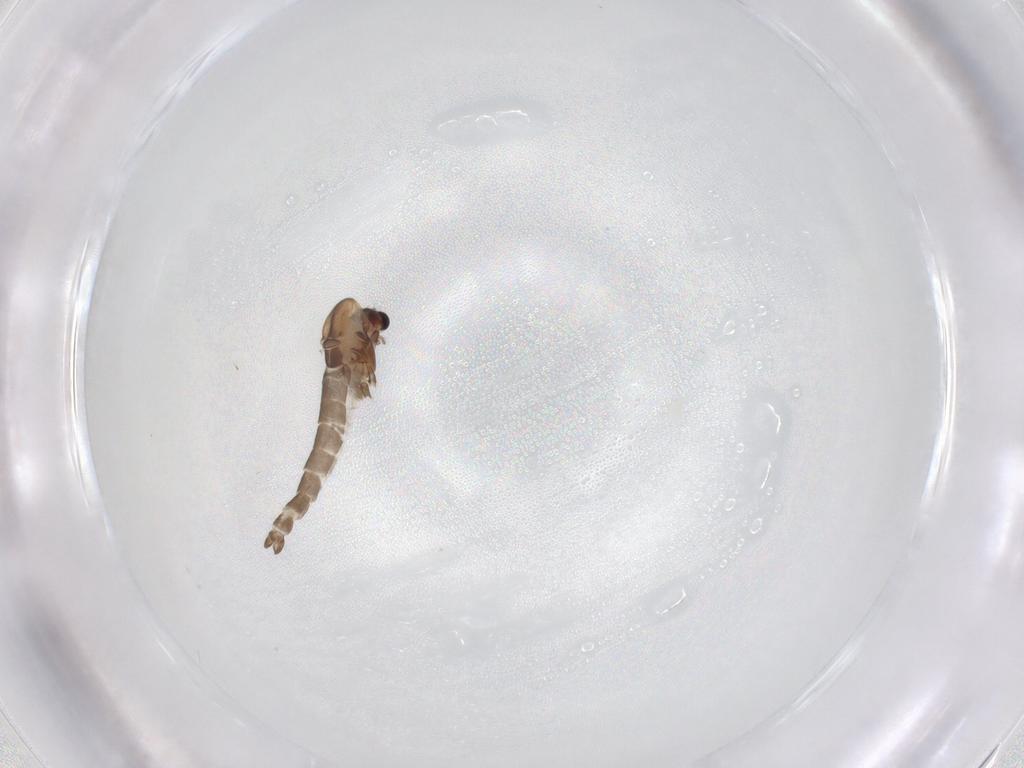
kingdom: Animalia
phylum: Arthropoda
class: Insecta
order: Diptera
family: Chironomidae
